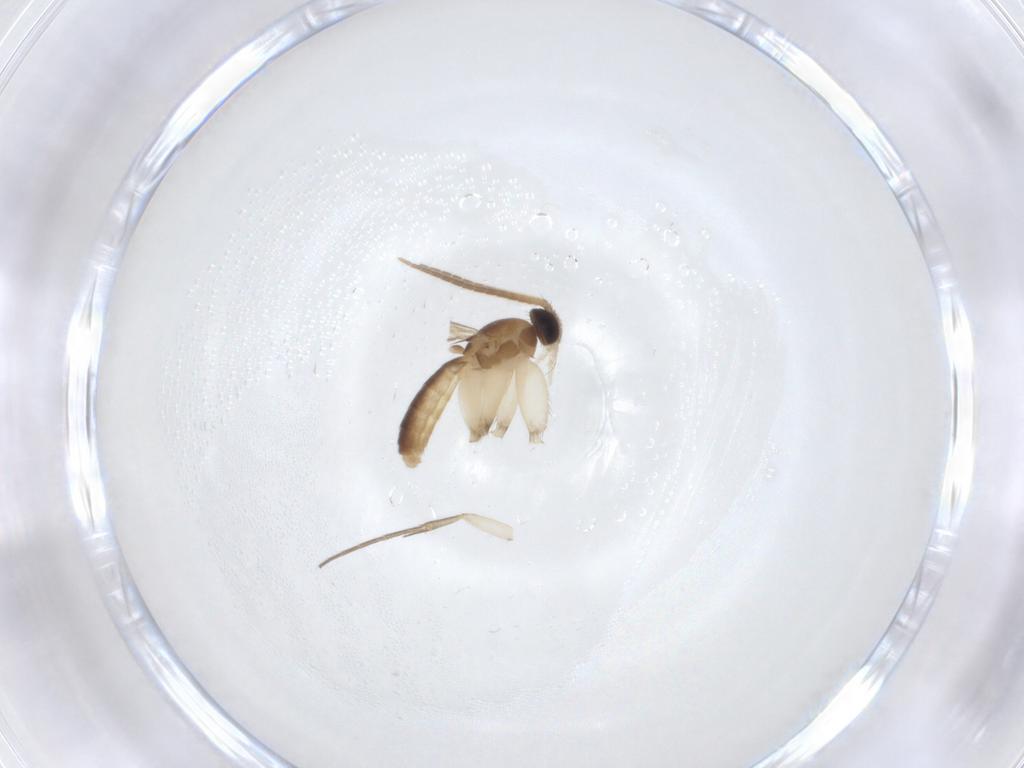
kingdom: Animalia
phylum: Arthropoda
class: Insecta
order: Diptera
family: Mycetophilidae
